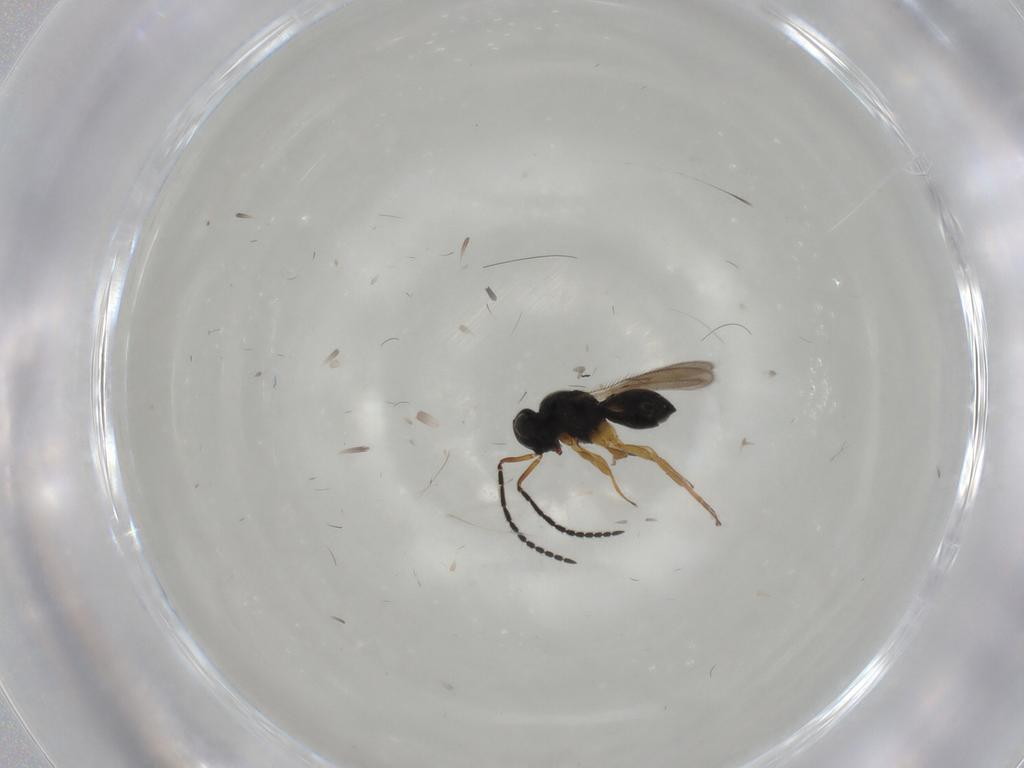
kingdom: Animalia
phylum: Arthropoda
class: Insecta
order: Hymenoptera
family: Scelionidae
